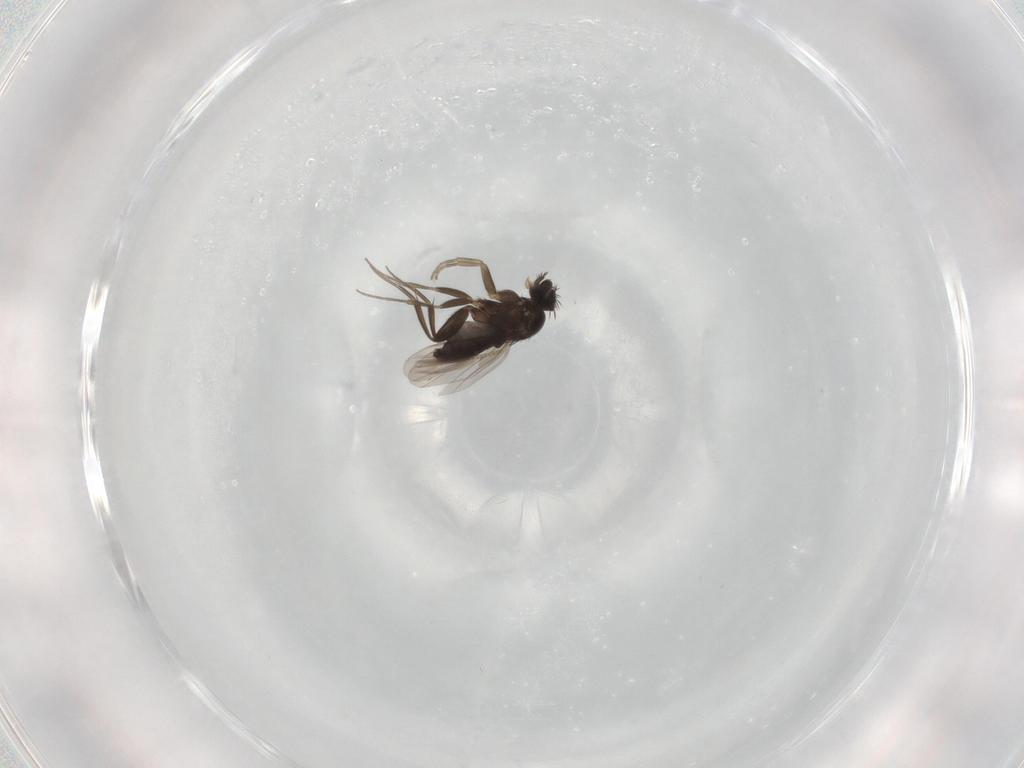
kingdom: Animalia
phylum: Arthropoda
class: Insecta
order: Diptera
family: Phoridae
